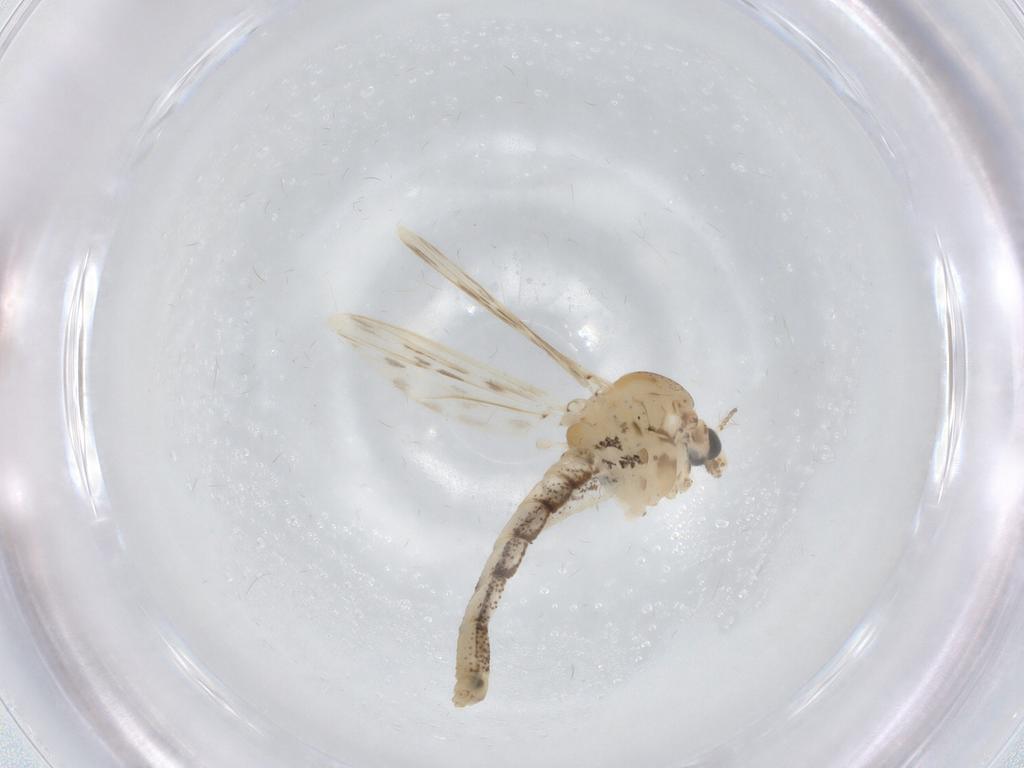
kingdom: Animalia
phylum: Arthropoda
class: Insecta
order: Diptera
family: Chaoboridae
